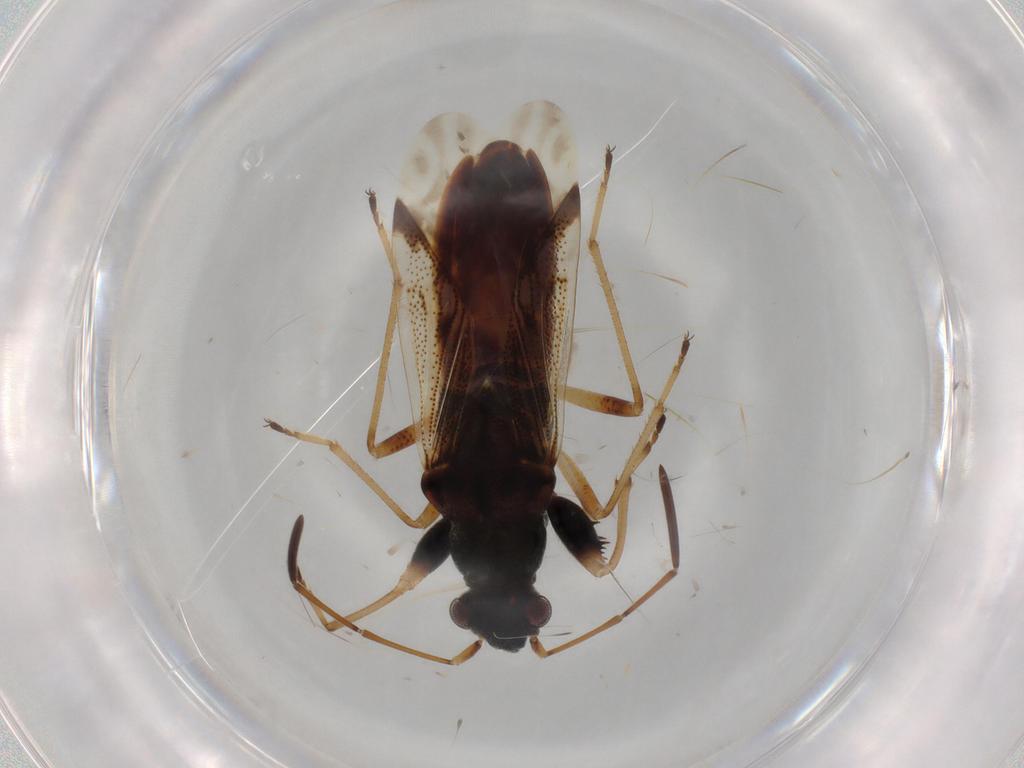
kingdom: Animalia
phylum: Arthropoda
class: Insecta
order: Hemiptera
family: Rhyparochromidae
